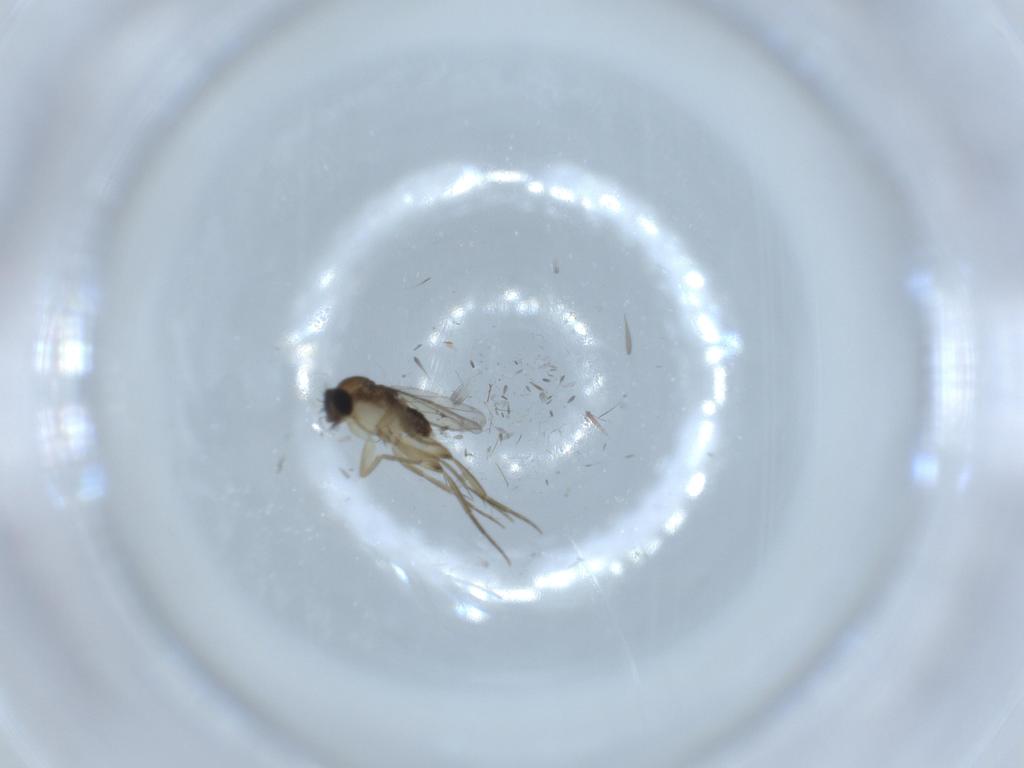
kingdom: Animalia
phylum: Arthropoda
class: Insecta
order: Diptera
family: Phoridae
